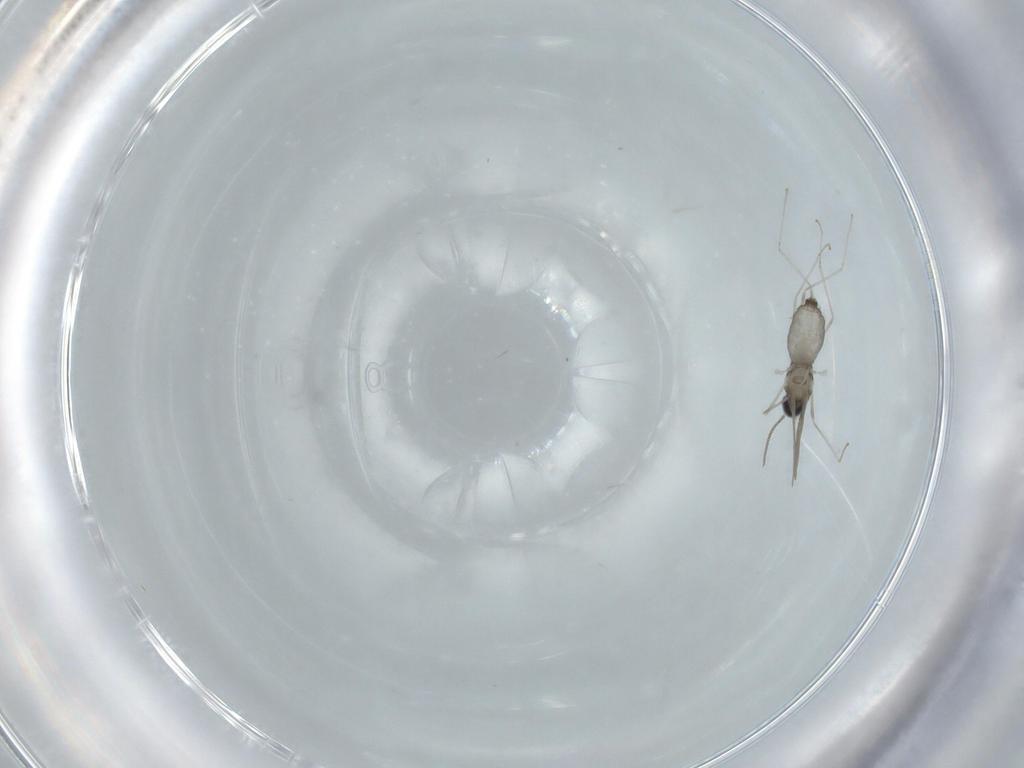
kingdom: Animalia
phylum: Arthropoda
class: Insecta
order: Diptera
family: Cecidomyiidae
